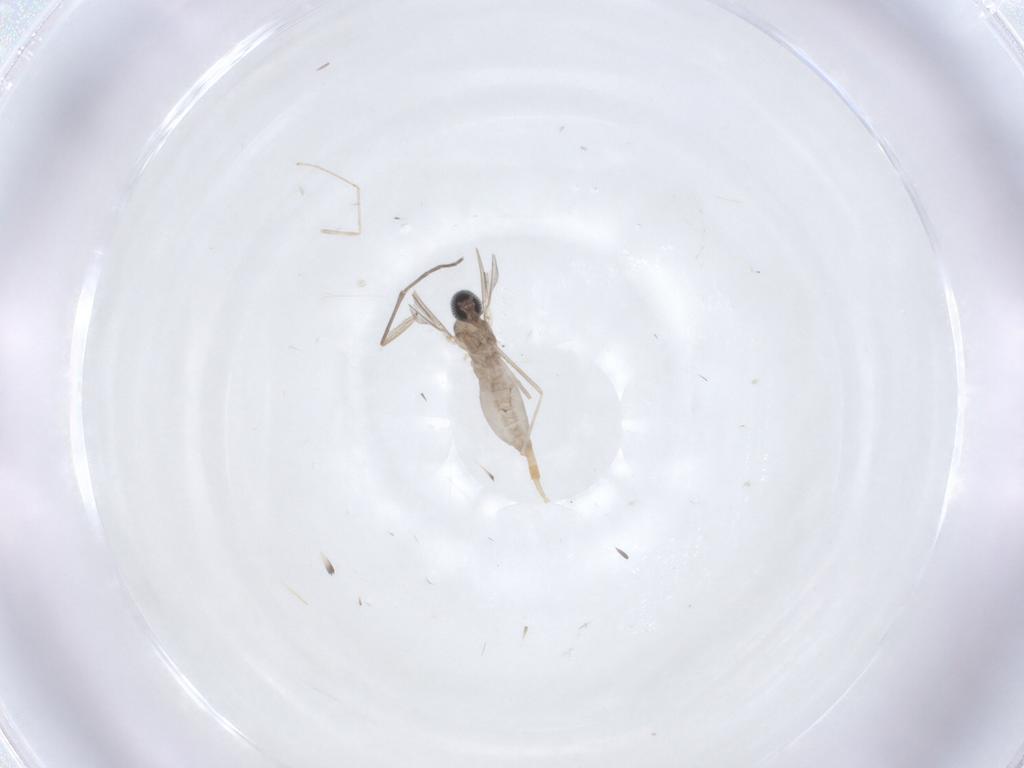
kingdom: Animalia
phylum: Arthropoda
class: Insecta
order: Diptera
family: Cecidomyiidae
